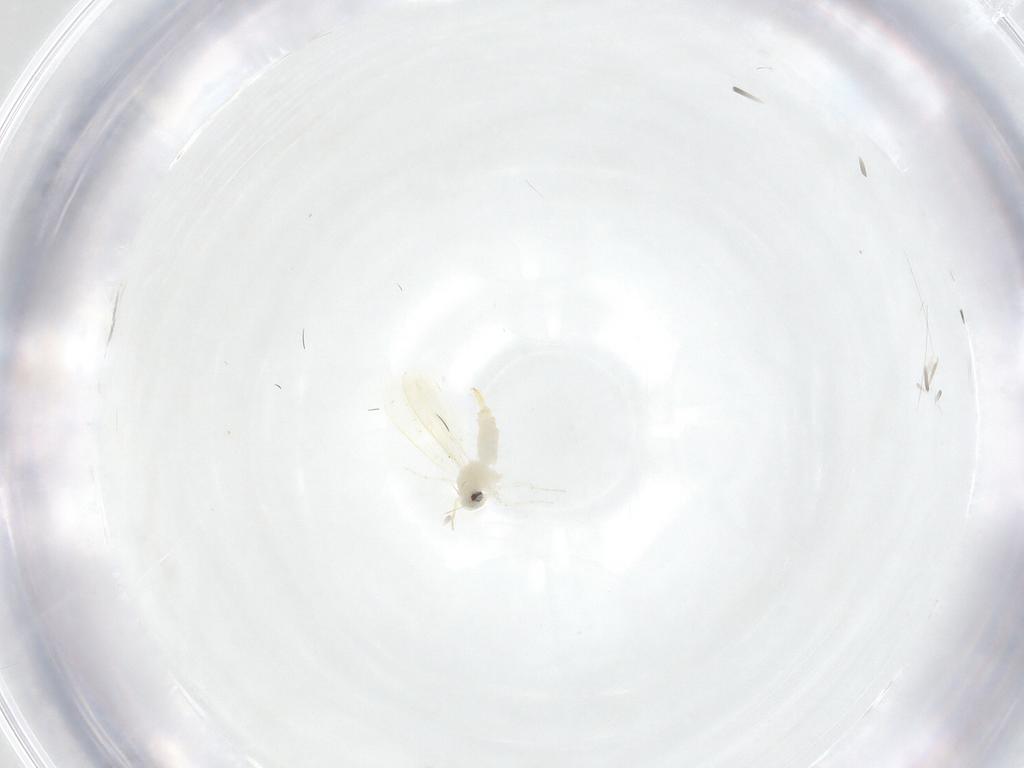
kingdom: Animalia
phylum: Arthropoda
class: Insecta
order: Hemiptera
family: Aleyrodidae
